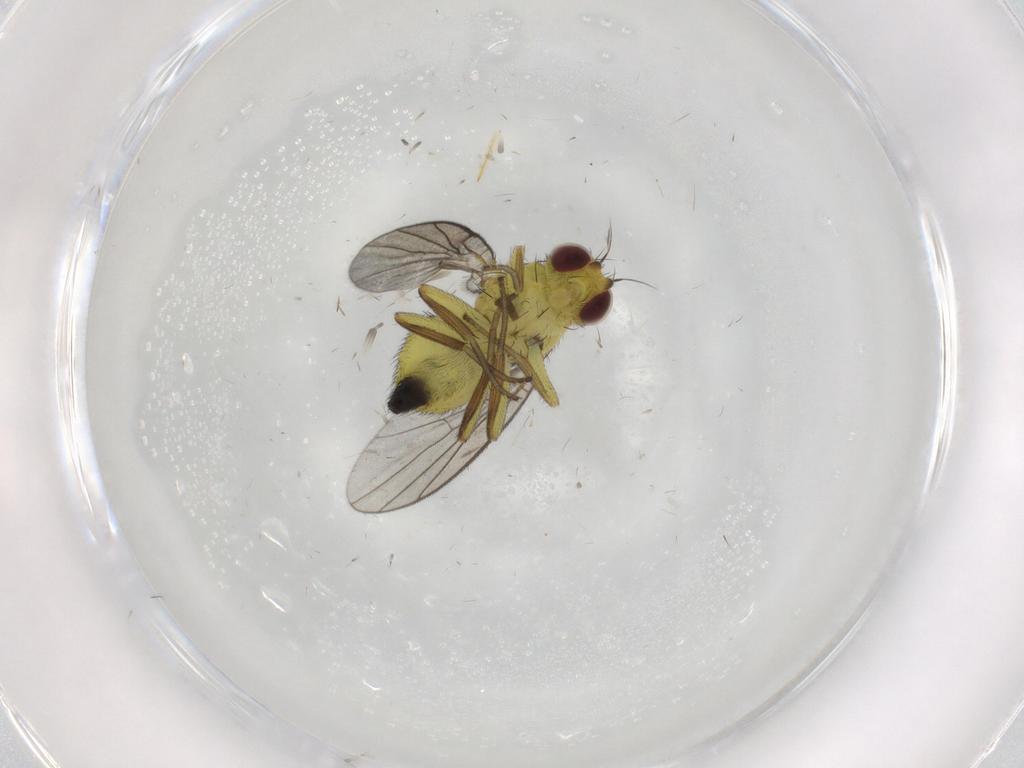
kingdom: Animalia
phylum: Arthropoda
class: Insecta
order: Diptera
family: Agromyzidae
